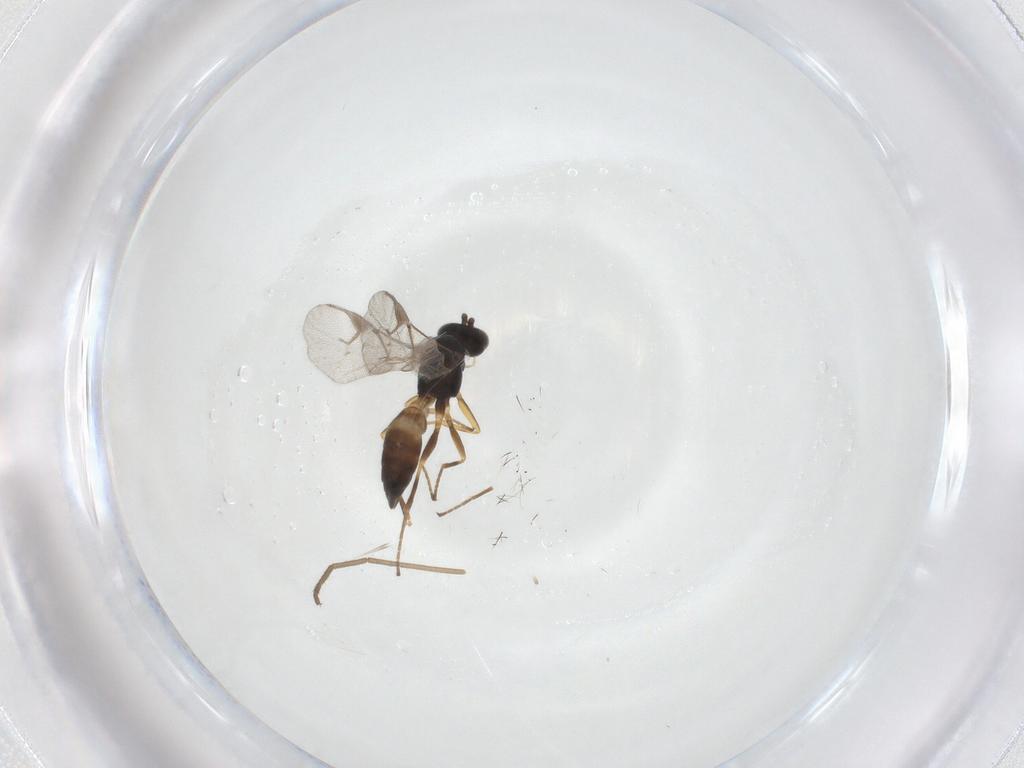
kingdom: Animalia
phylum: Arthropoda
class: Insecta
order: Hymenoptera
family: Braconidae
